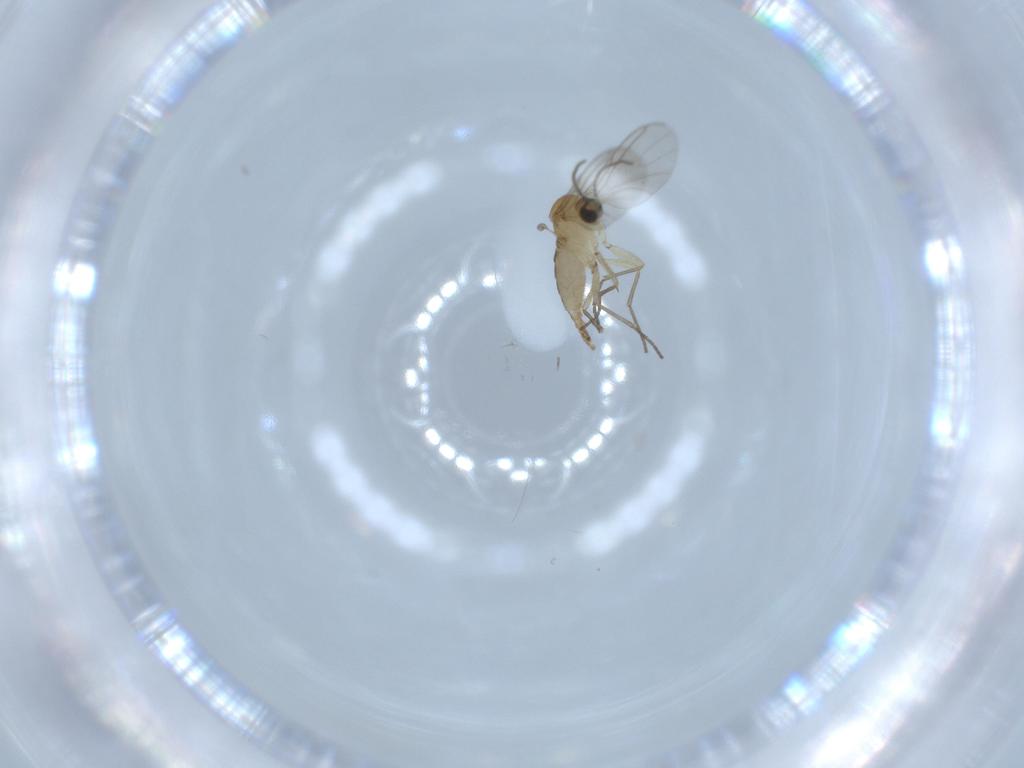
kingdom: Animalia
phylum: Arthropoda
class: Insecta
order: Diptera
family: Sciaridae
